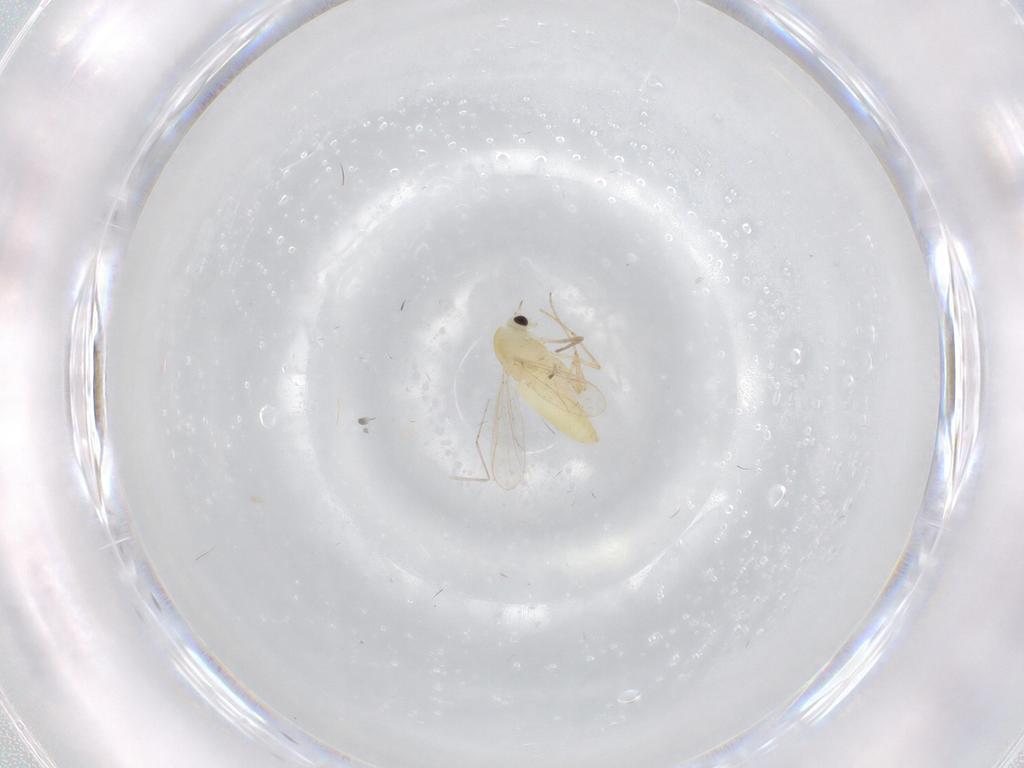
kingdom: Animalia
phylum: Arthropoda
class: Insecta
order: Diptera
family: Chironomidae
